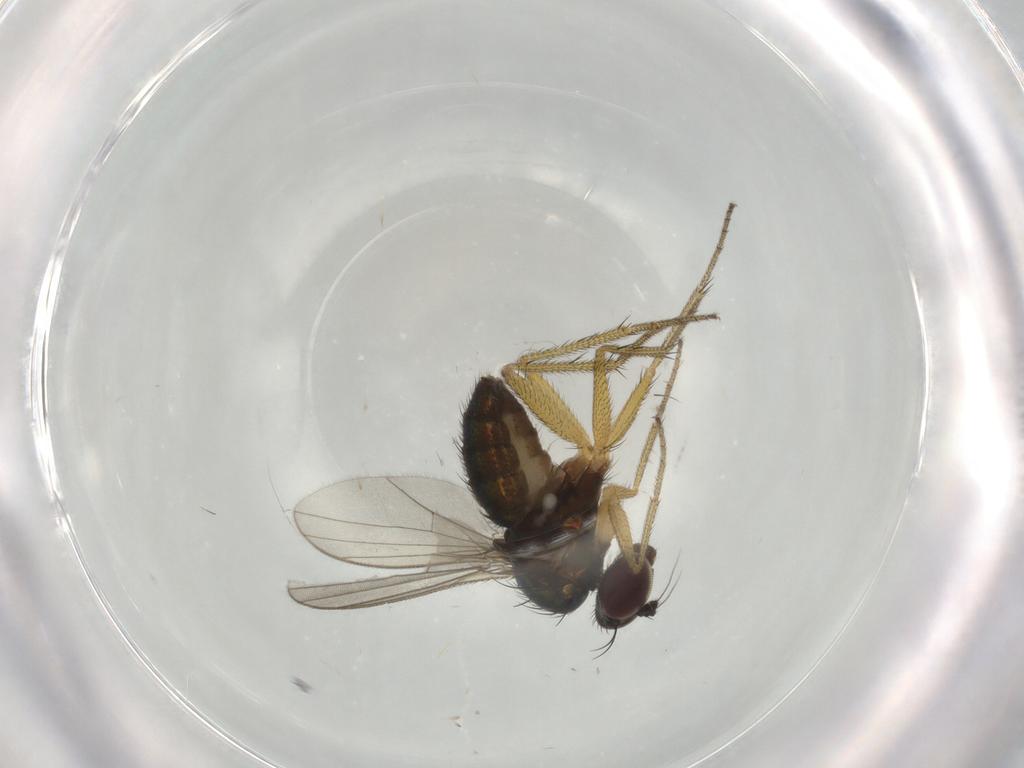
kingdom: Animalia
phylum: Arthropoda
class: Insecta
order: Diptera
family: Dolichopodidae
